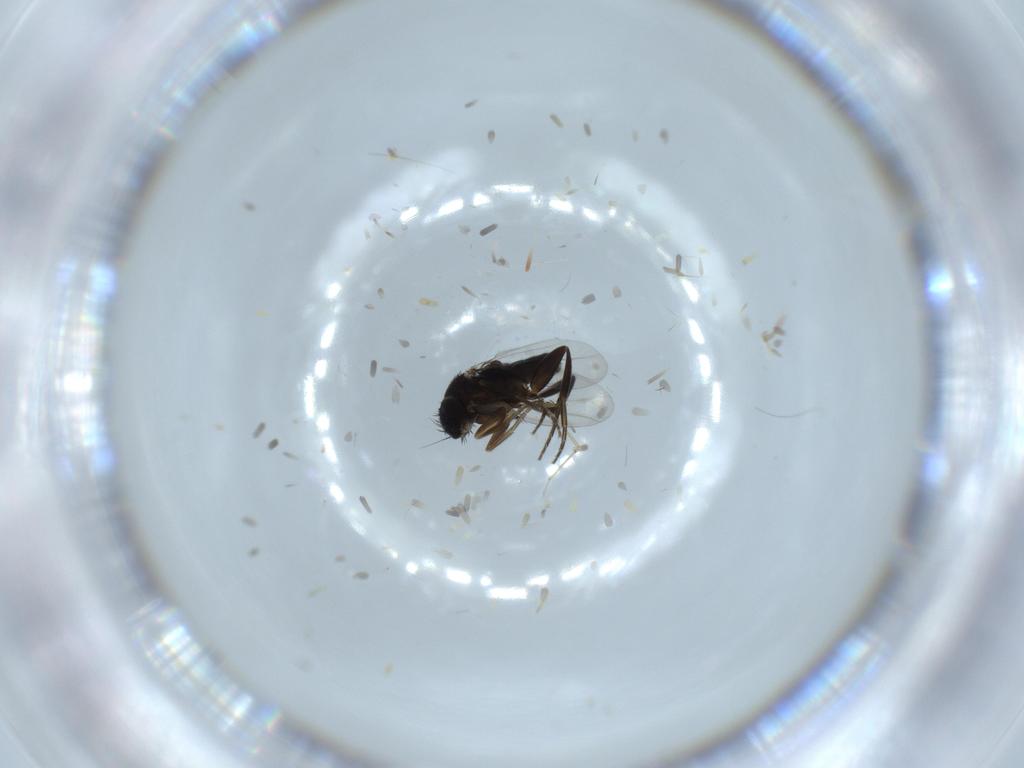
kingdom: Animalia
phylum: Arthropoda
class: Insecta
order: Diptera
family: Phoridae
